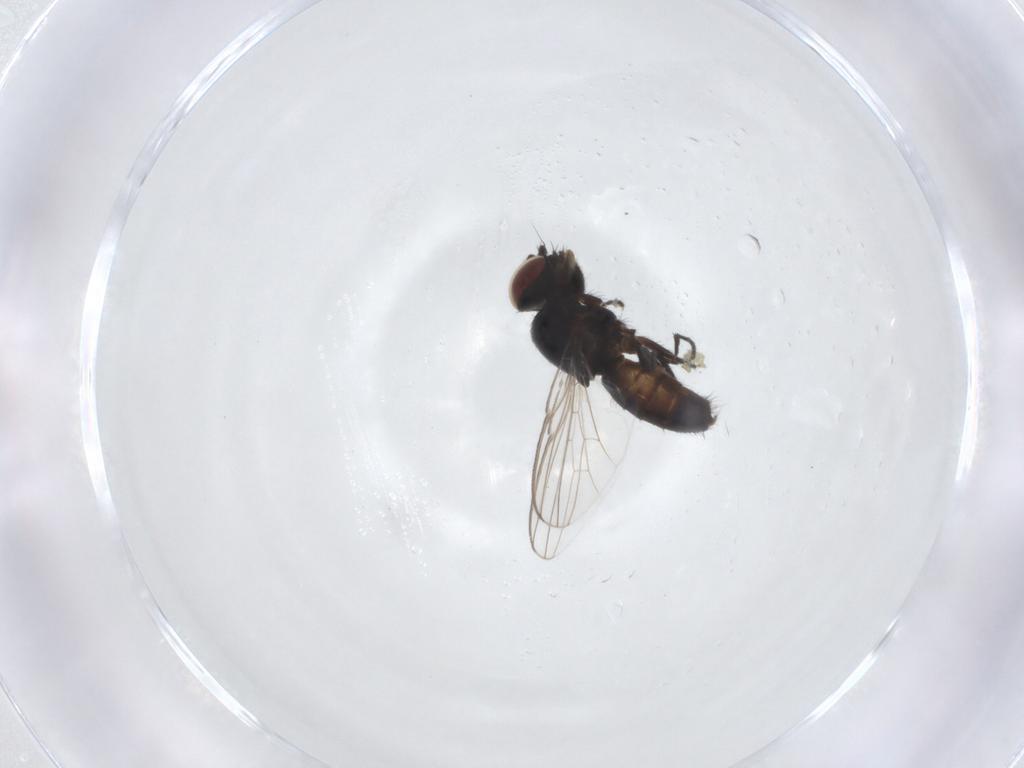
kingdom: Animalia
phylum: Arthropoda
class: Insecta
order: Diptera
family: Milichiidae
